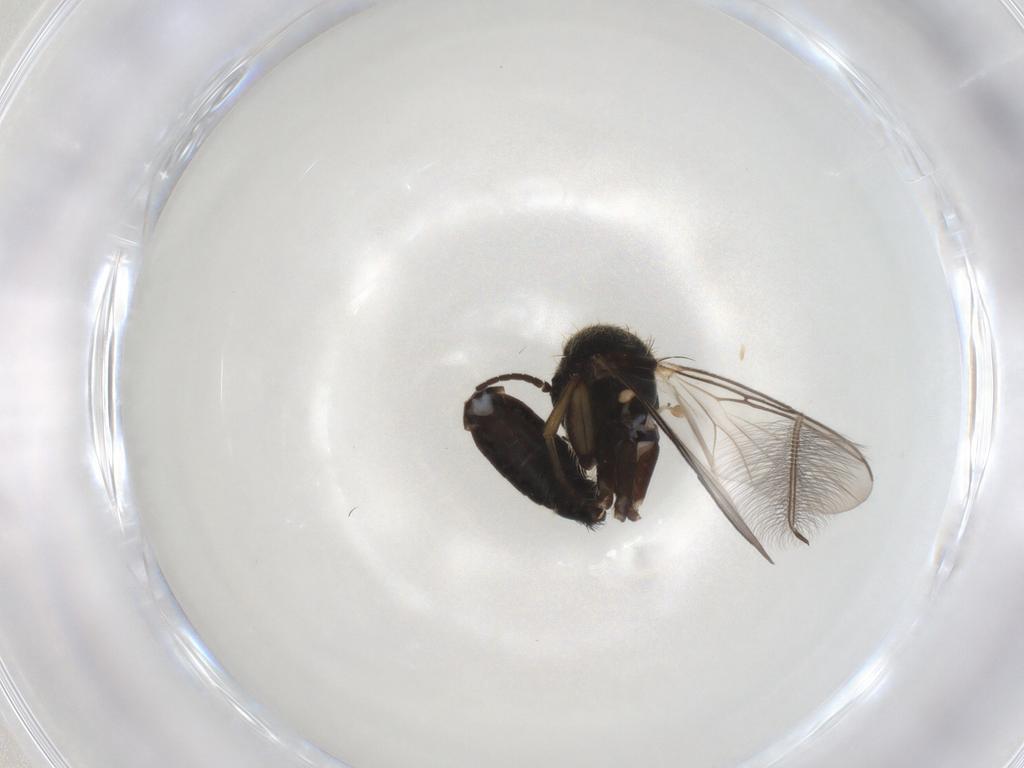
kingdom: Animalia
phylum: Arthropoda
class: Insecta
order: Diptera
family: Mycetophilidae
